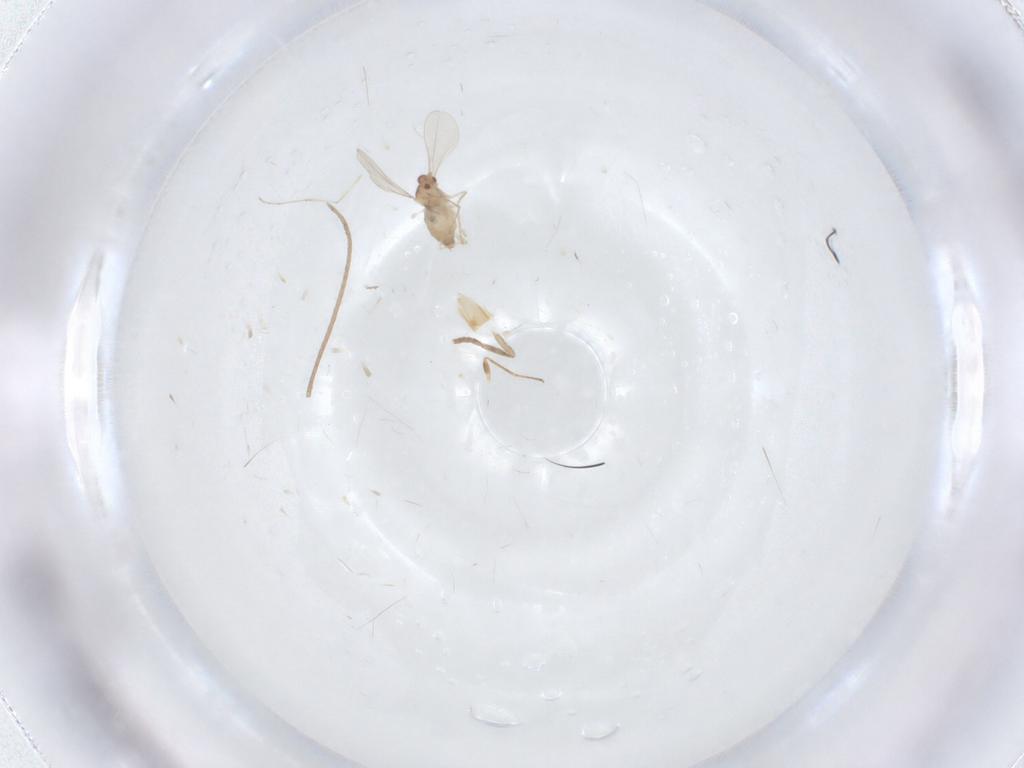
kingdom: Animalia
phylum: Arthropoda
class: Insecta
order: Diptera
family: Cecidomyiidae
